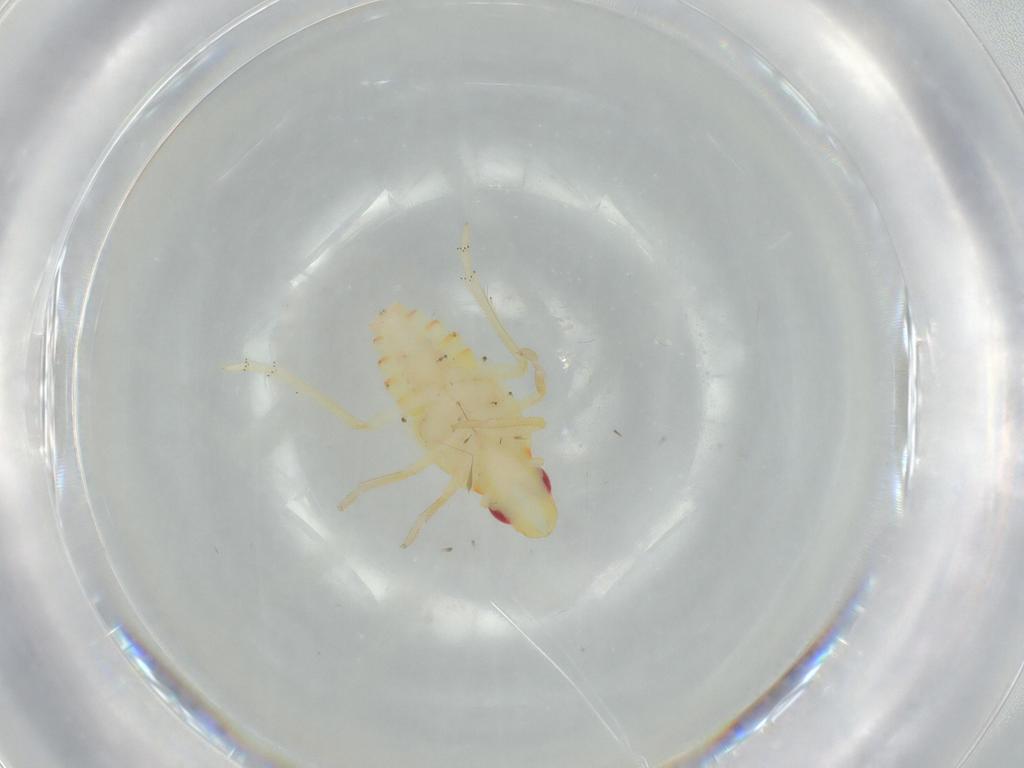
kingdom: Animalia
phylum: Arthropoda
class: Insecta
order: Hemiptera
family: Tropiduchidae
